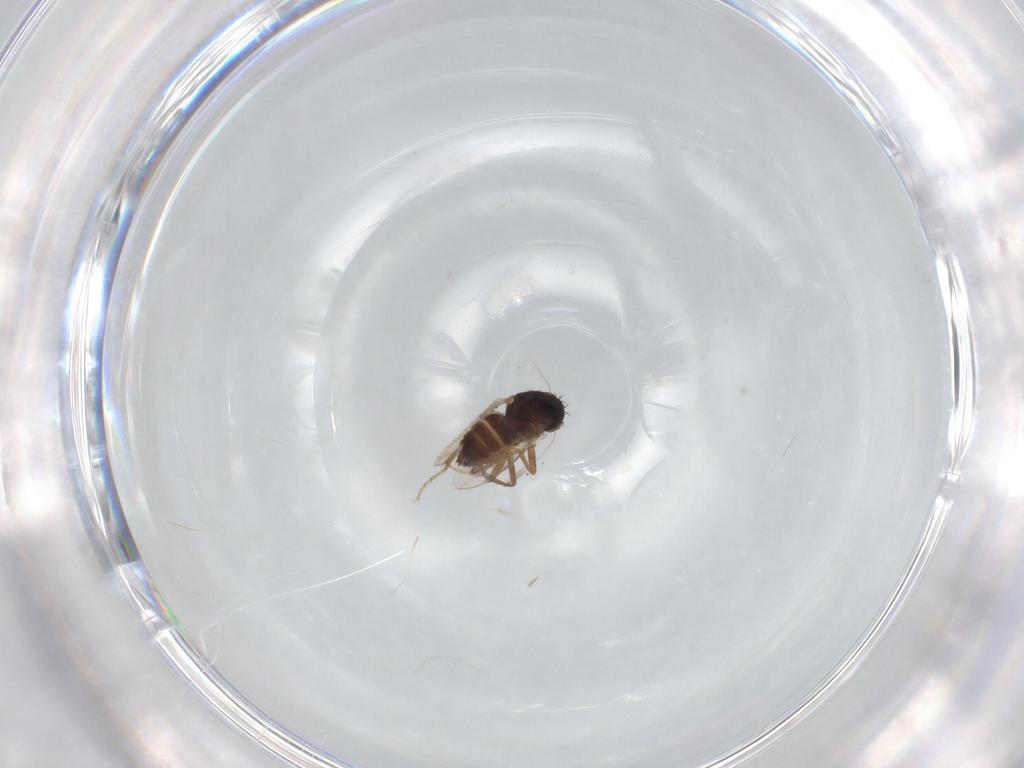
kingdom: Animalia
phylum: Arthropoda
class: Insecta
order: Diptera
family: Cecidomyiidae
